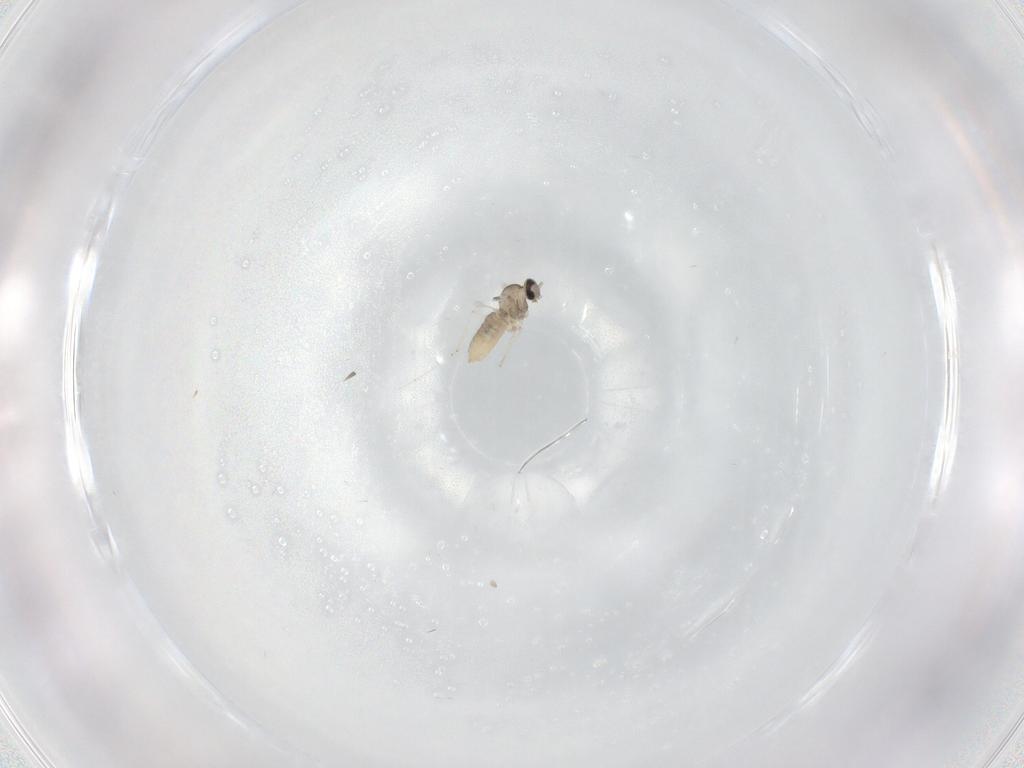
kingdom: Animalia
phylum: Arthropoda
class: Insecta
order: Diptera
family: Cecidomyiidae
